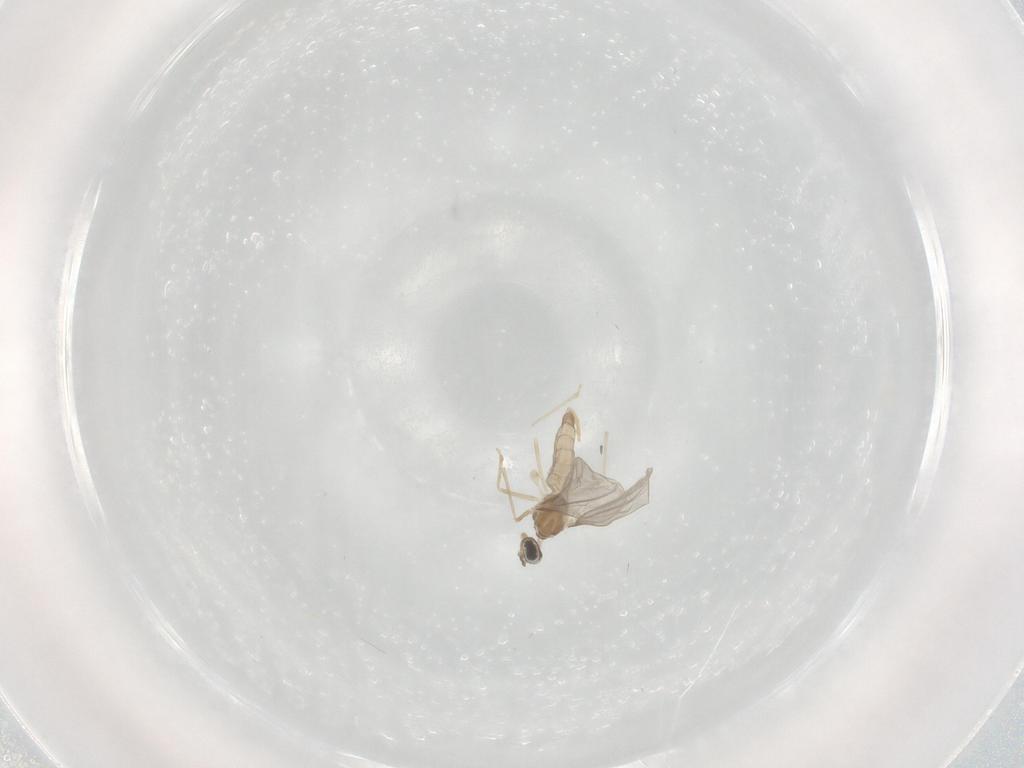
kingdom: Animalia
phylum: Arthropoda
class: Insecta
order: Diptera
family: Cecidomyiidae
